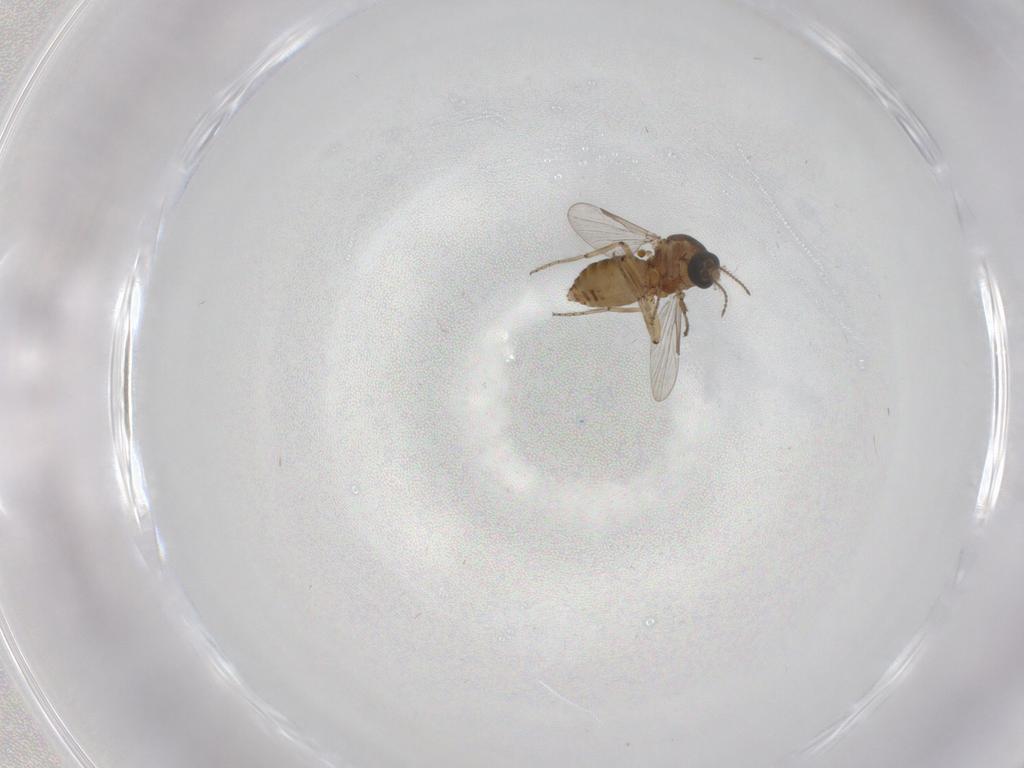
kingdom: Animalia
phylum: Arthropoda
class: Insecta
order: Diptera
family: Ceratopogonidae
